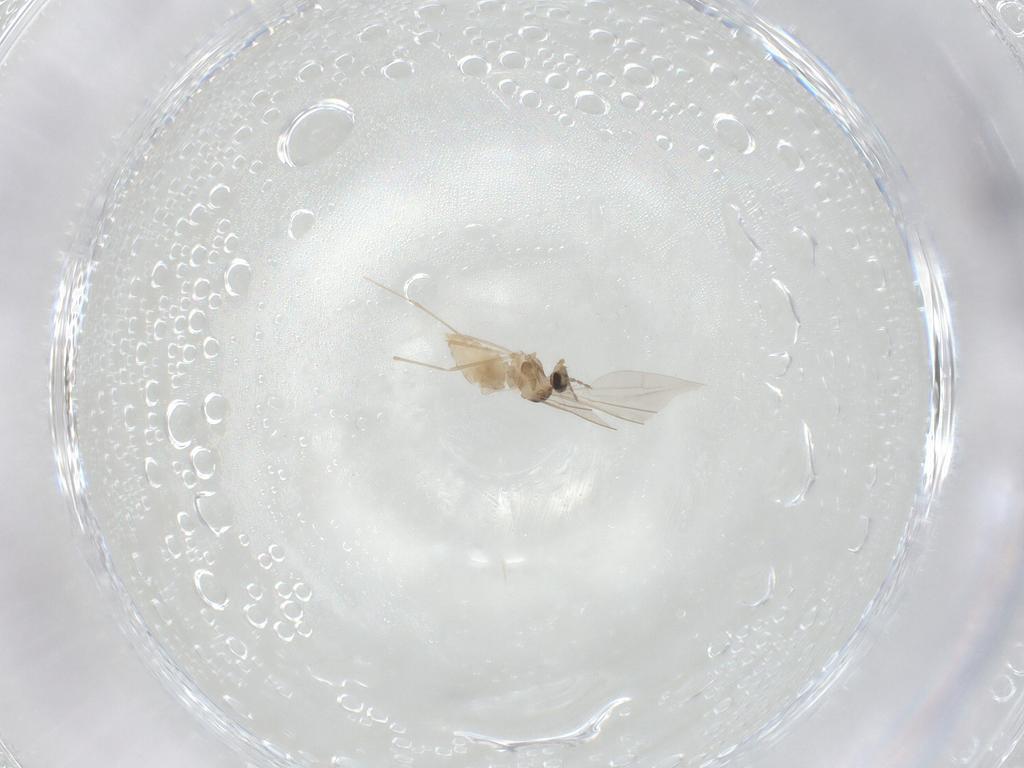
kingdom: Animalia
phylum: Arthropoda
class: Insecta
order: Diptera
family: Cecidomyiidae
